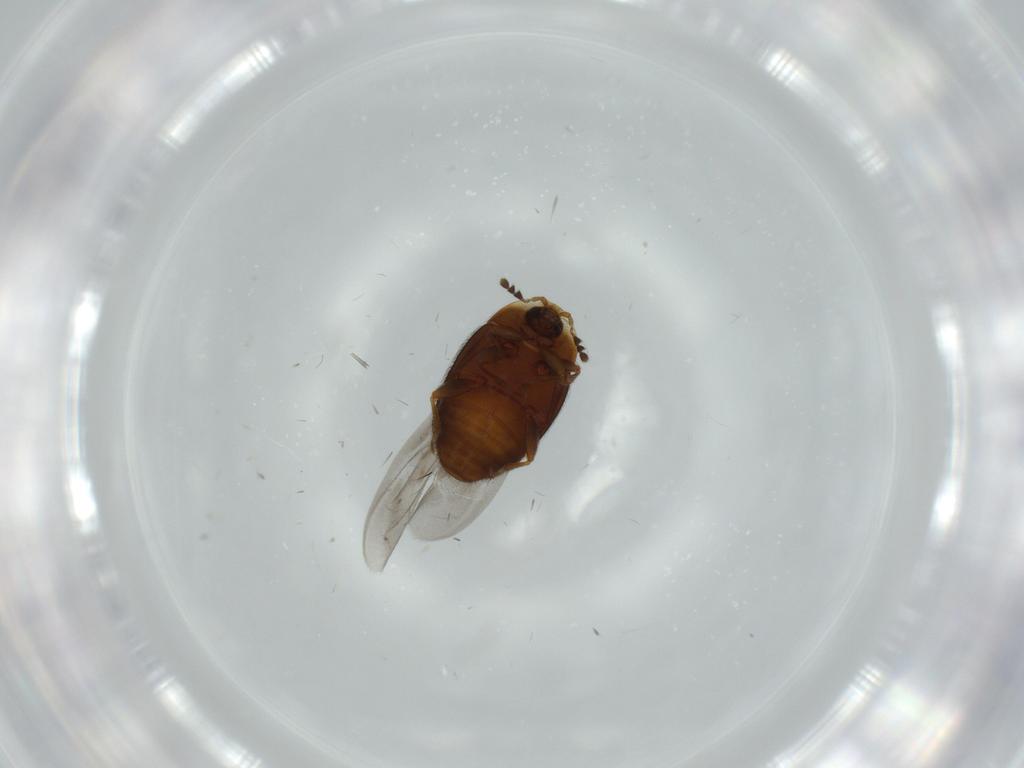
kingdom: Animalia
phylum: Arthropoda
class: Insecta
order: Coleoptera
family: Corylophidae
